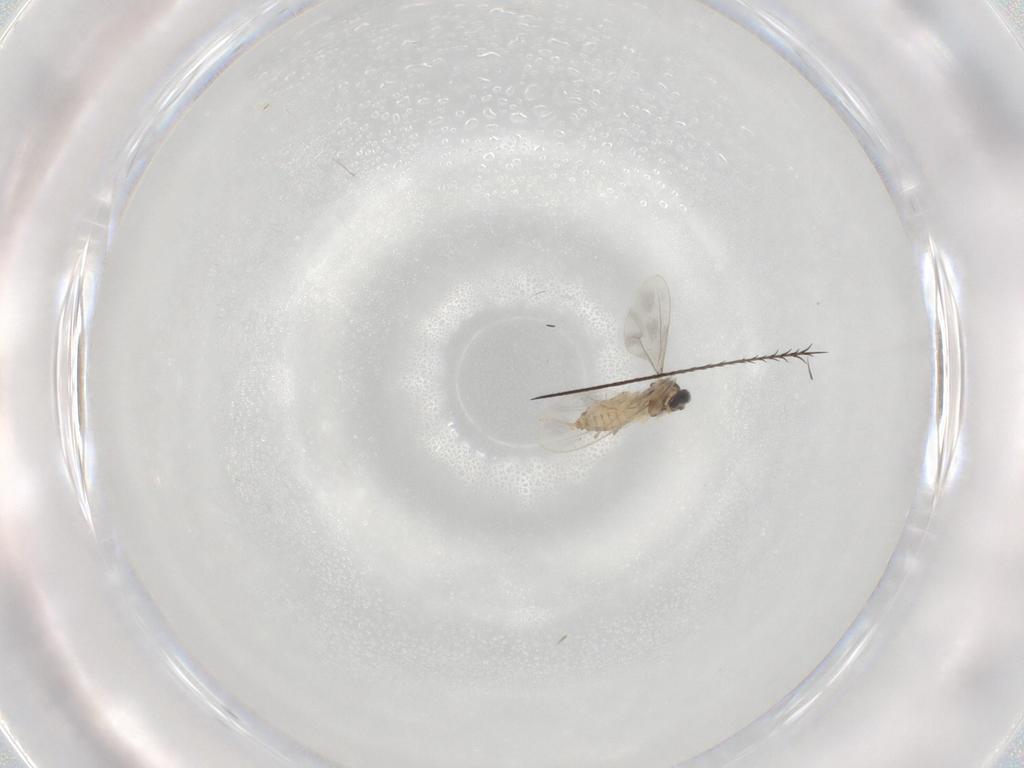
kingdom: Animalia
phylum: Arthropoda
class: Insecta
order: Diptera
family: Cecidomyiidae
